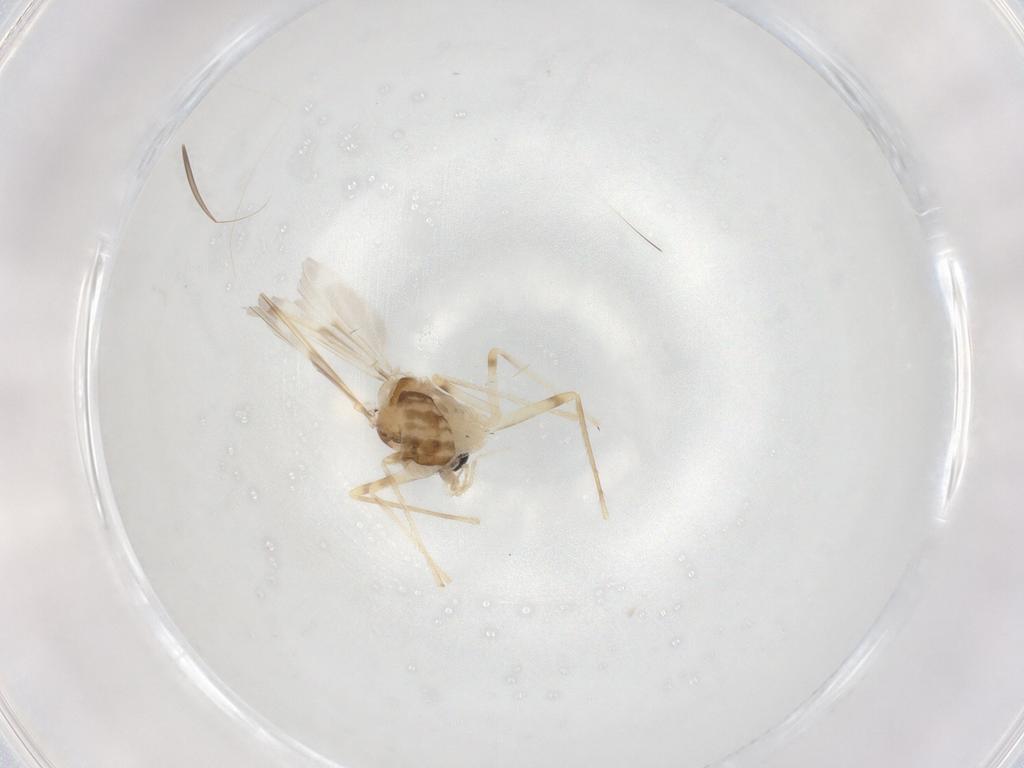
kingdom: Animalia
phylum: Arthropoda
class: Insecta
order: Diptera
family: Chironomidae
